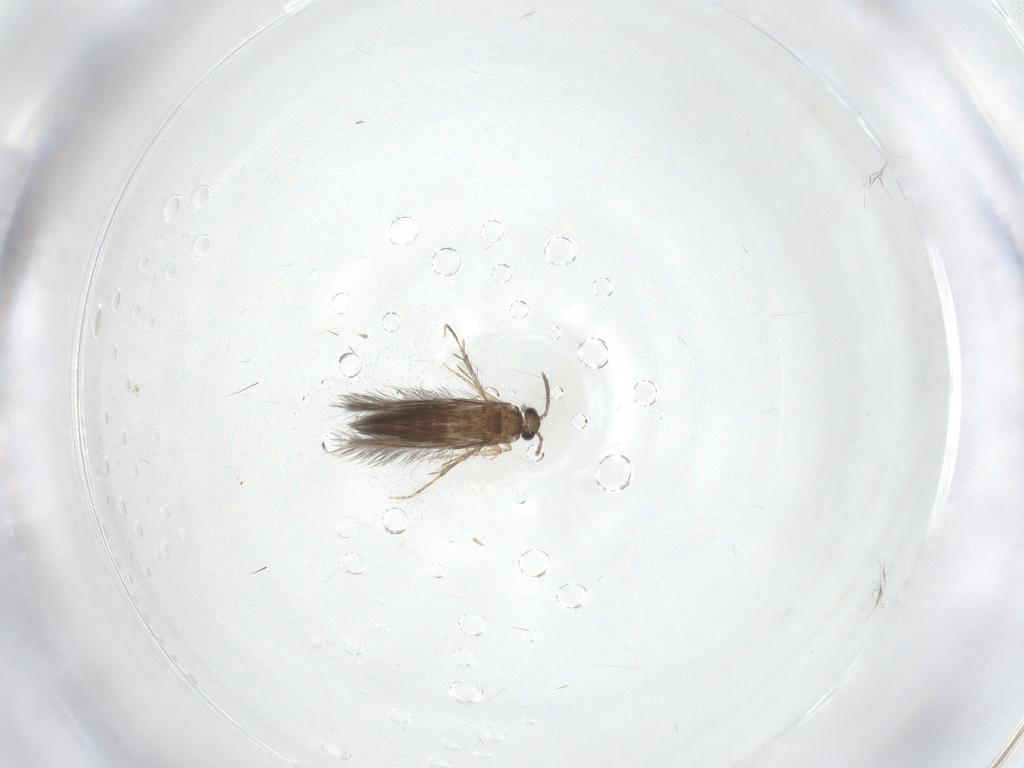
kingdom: Animalia
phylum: Arthropoda
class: Insecta
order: Trichoptera
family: Hydroptilidae
